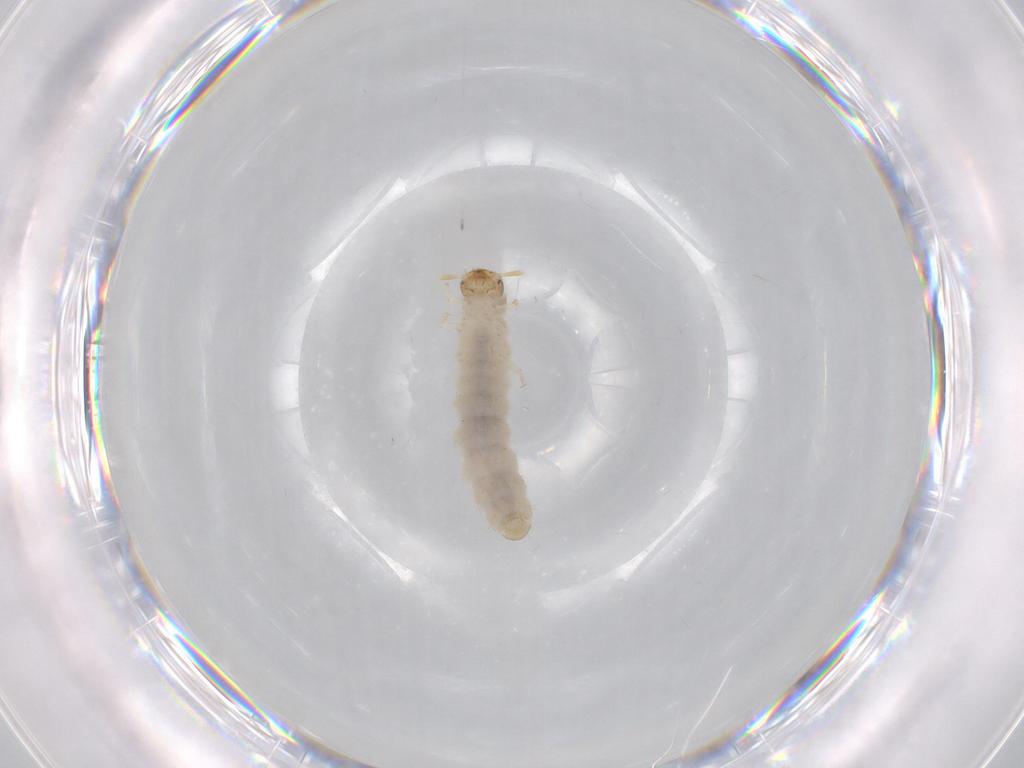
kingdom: Animalia
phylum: Arthropoda
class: Insecta
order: Coleoptera
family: Silvanidae
